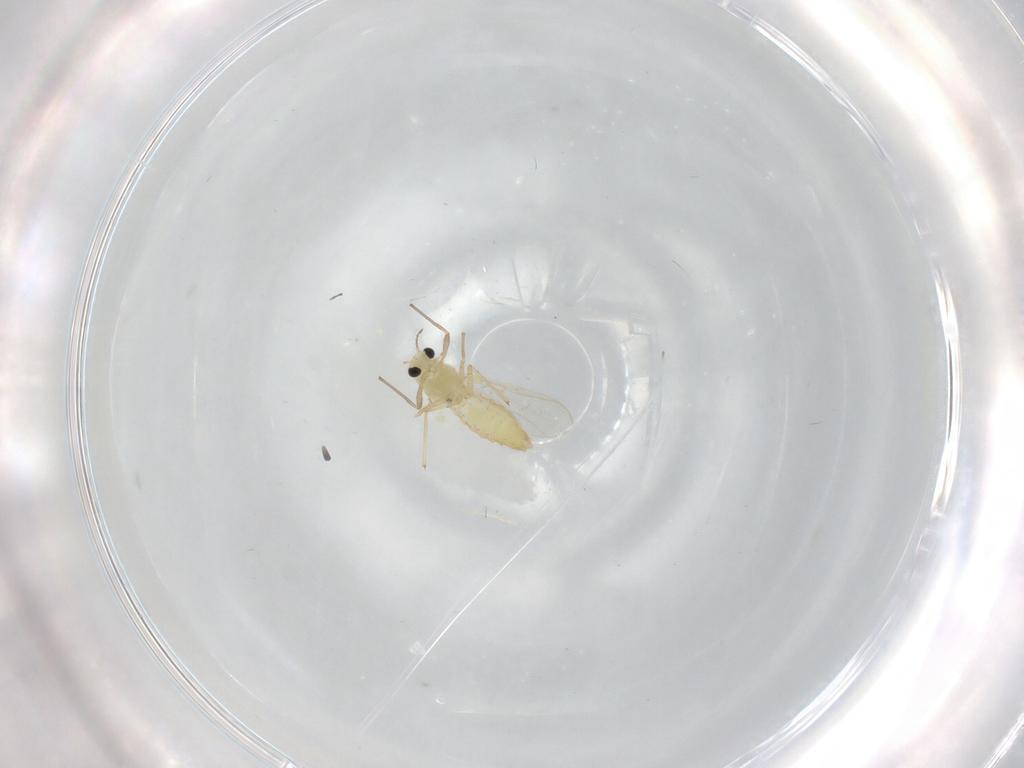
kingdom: Animalia
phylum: Arthropoda
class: Insecta
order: Diptera
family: Chironomidae
